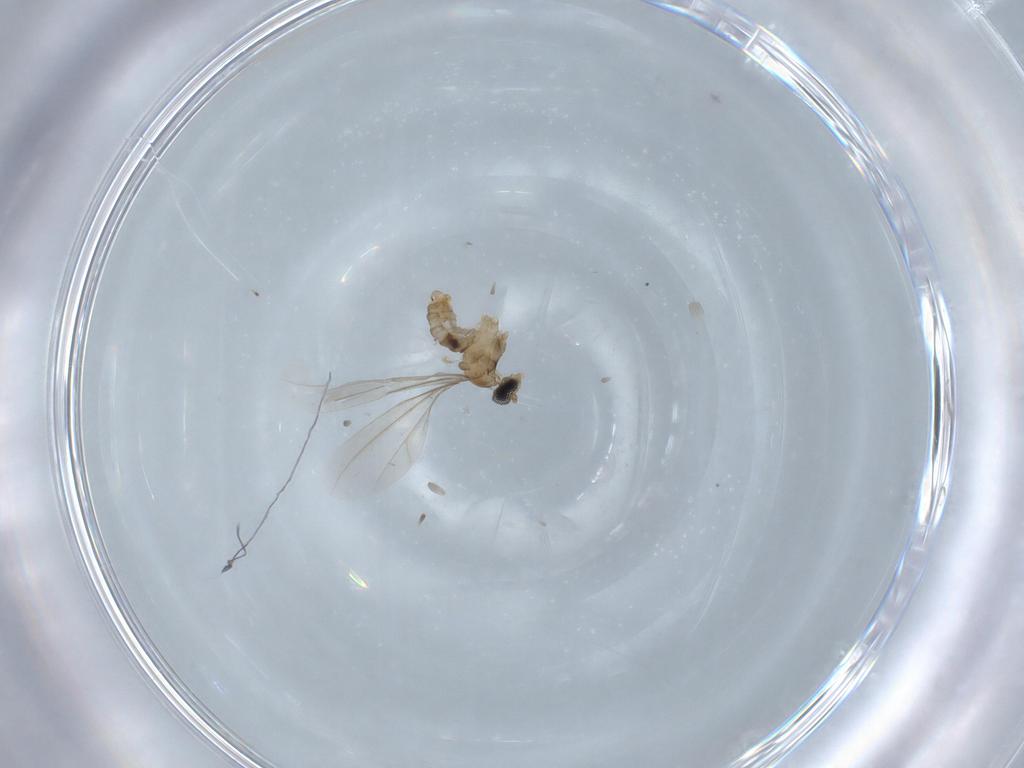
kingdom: Animalia
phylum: Arthropoda
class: Insecta
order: Diptera
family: Cecidomyiidae
